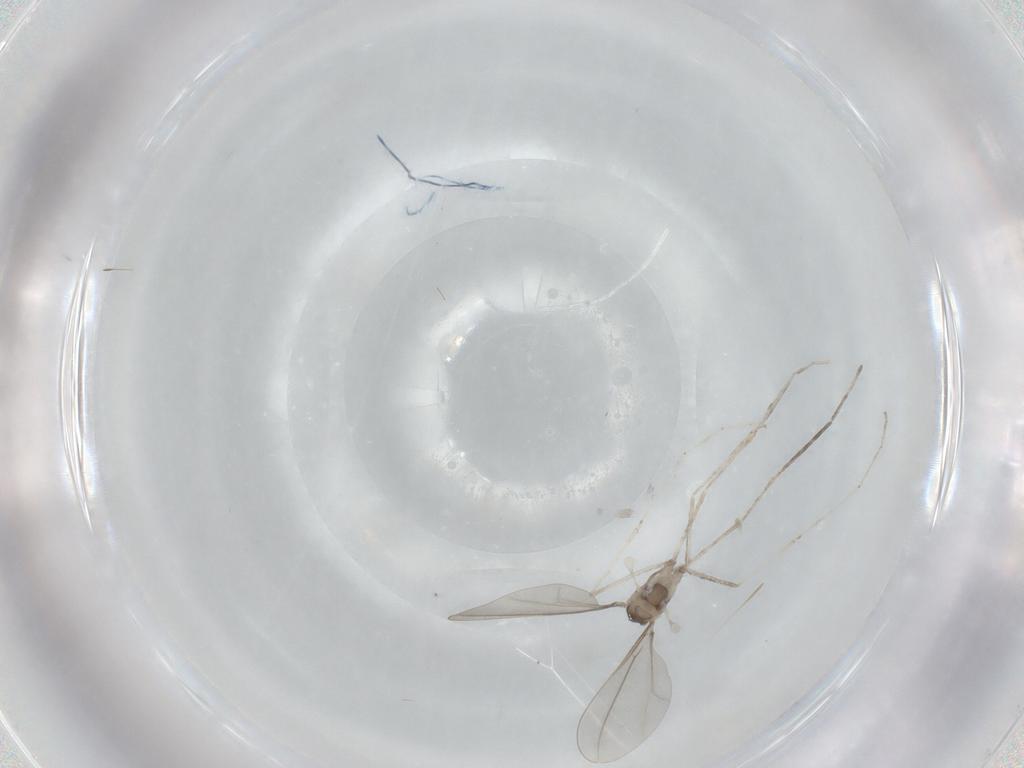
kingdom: Animalia
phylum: Arthropoda
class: Insecta
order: Diptera
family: Cecidomyiidae
